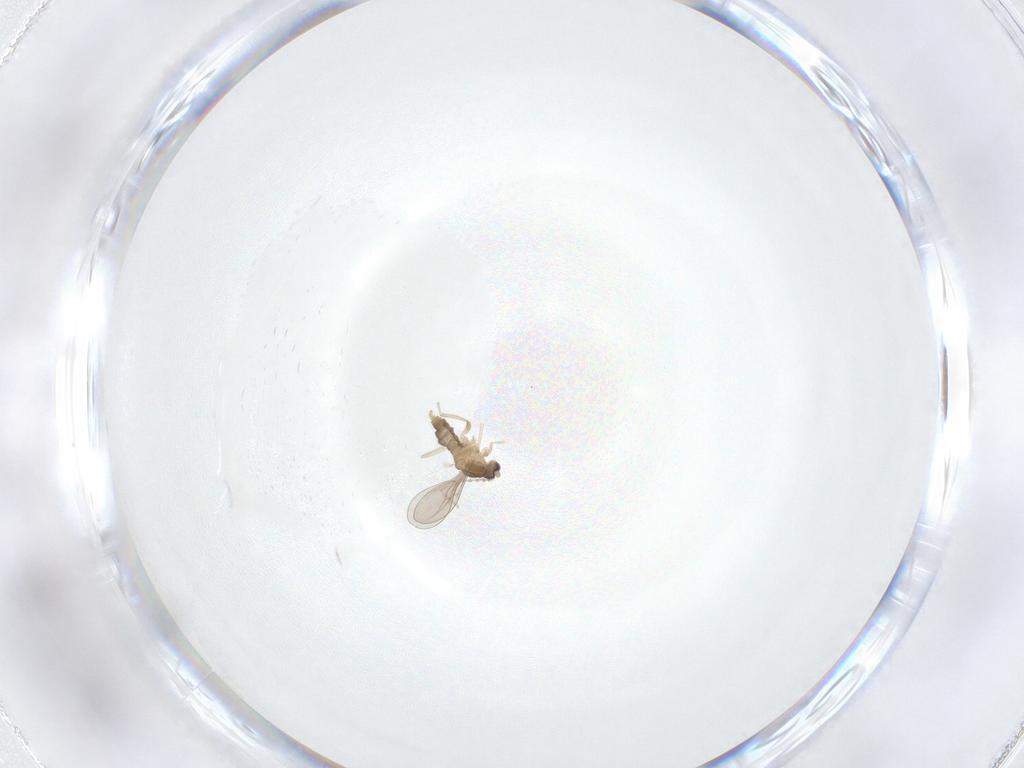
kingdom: Animalia
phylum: Arthropoda
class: Insecta
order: Diptera
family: Cecidomyiidae
